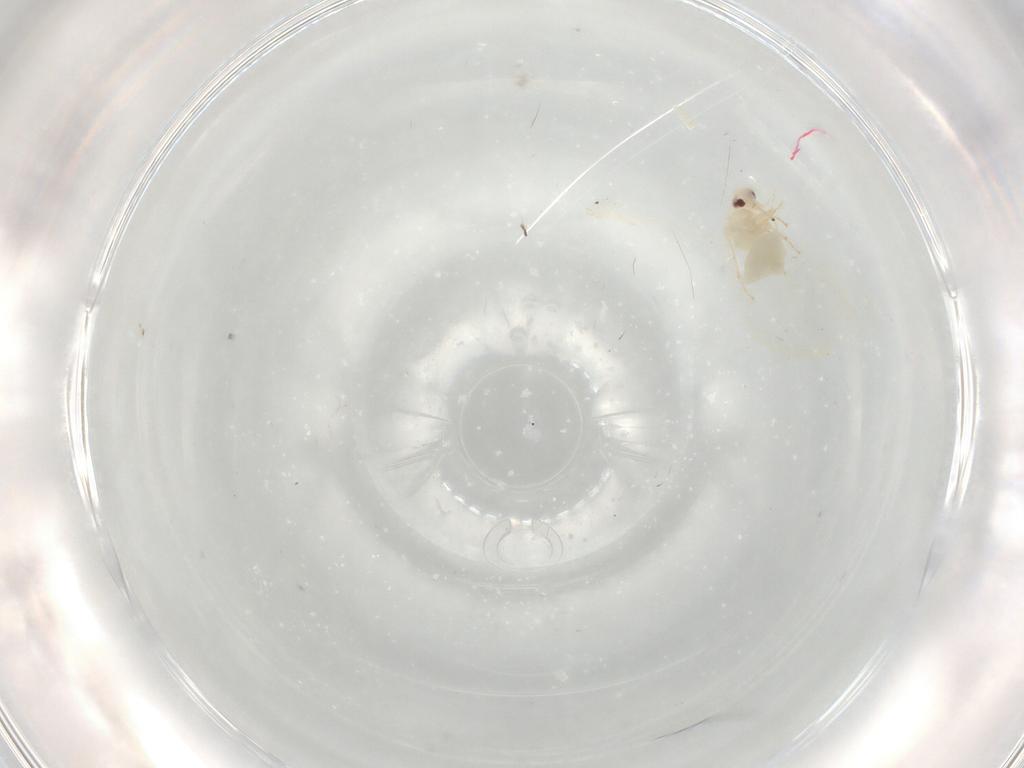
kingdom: Animalia
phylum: Arthropoda
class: Insecta
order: Hemiptera
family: Aleyrodidae
